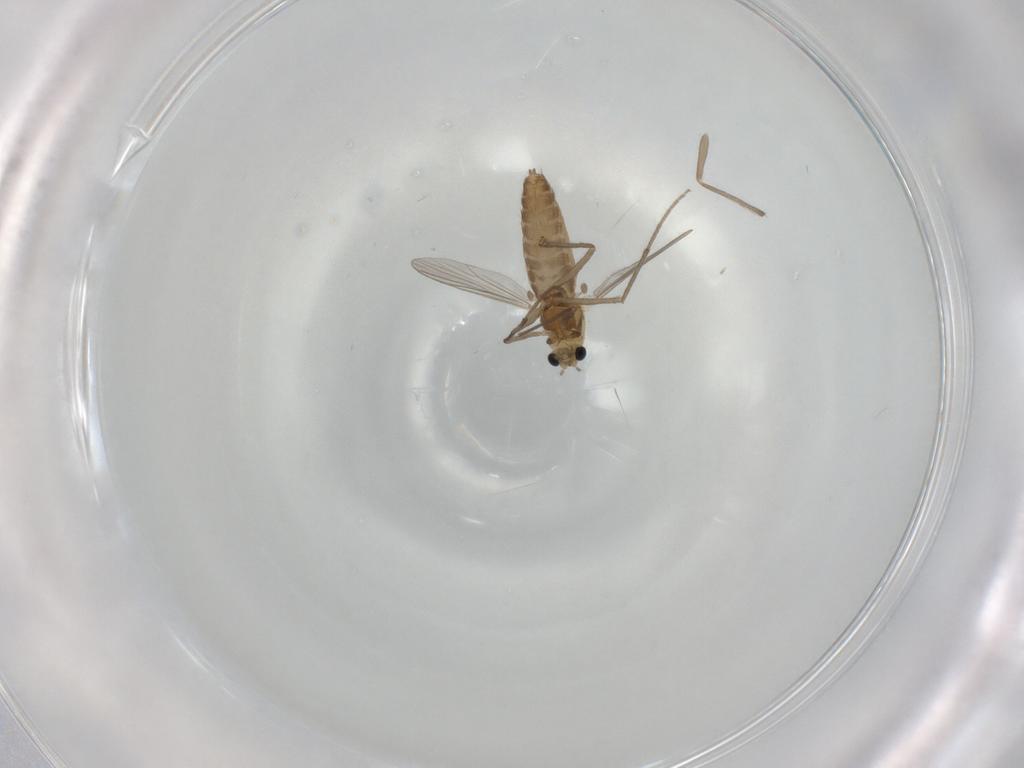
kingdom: Animalia
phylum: Arthropoda
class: Insecta
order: Diptera
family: Chironomidae
